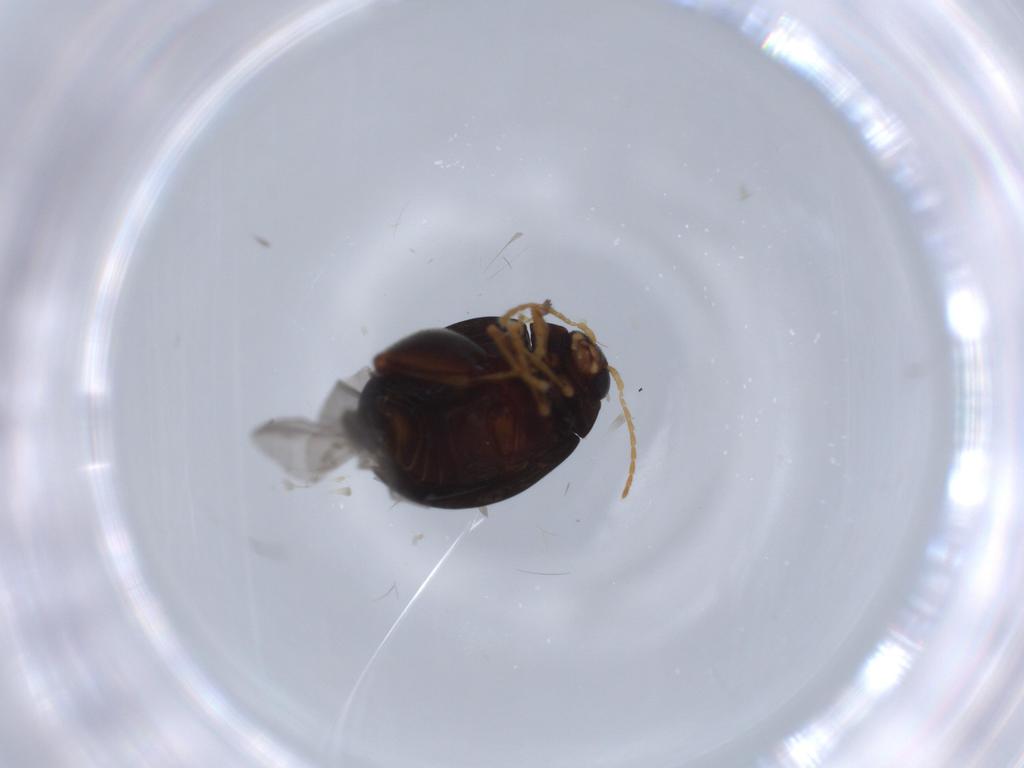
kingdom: Animalia
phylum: Arthropoda
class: Insecta
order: Coleoptera
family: Chrysomelidae
